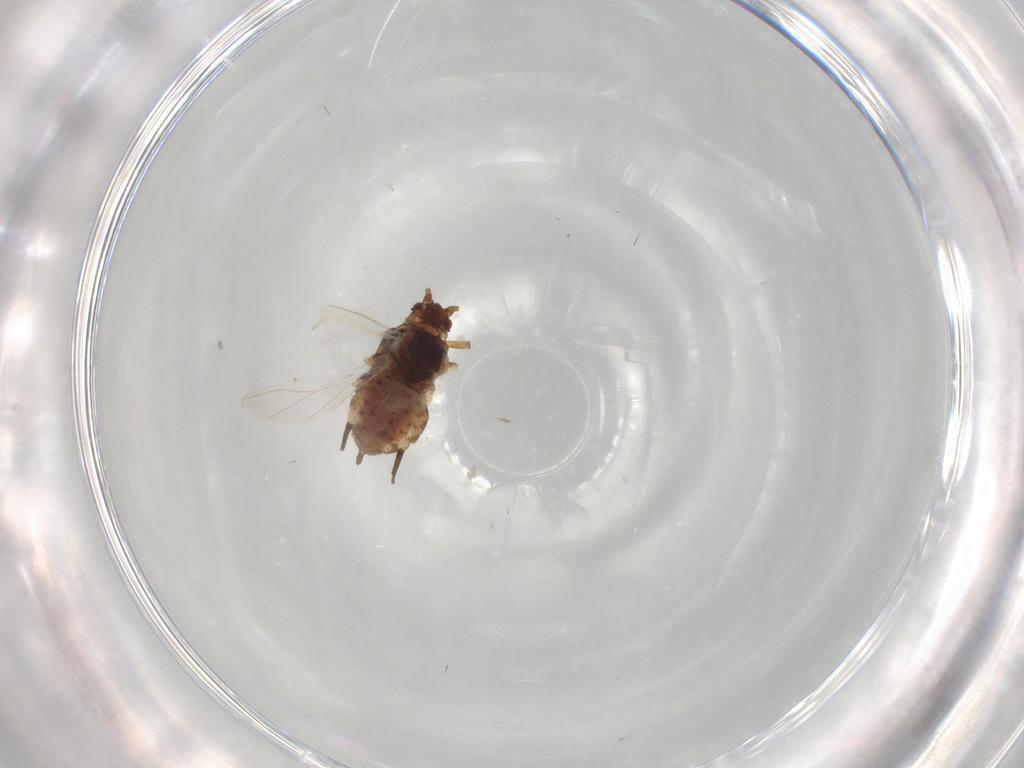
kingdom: Animalia
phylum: Arthropoda
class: Insecta
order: Hemiptera
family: Aphididae
